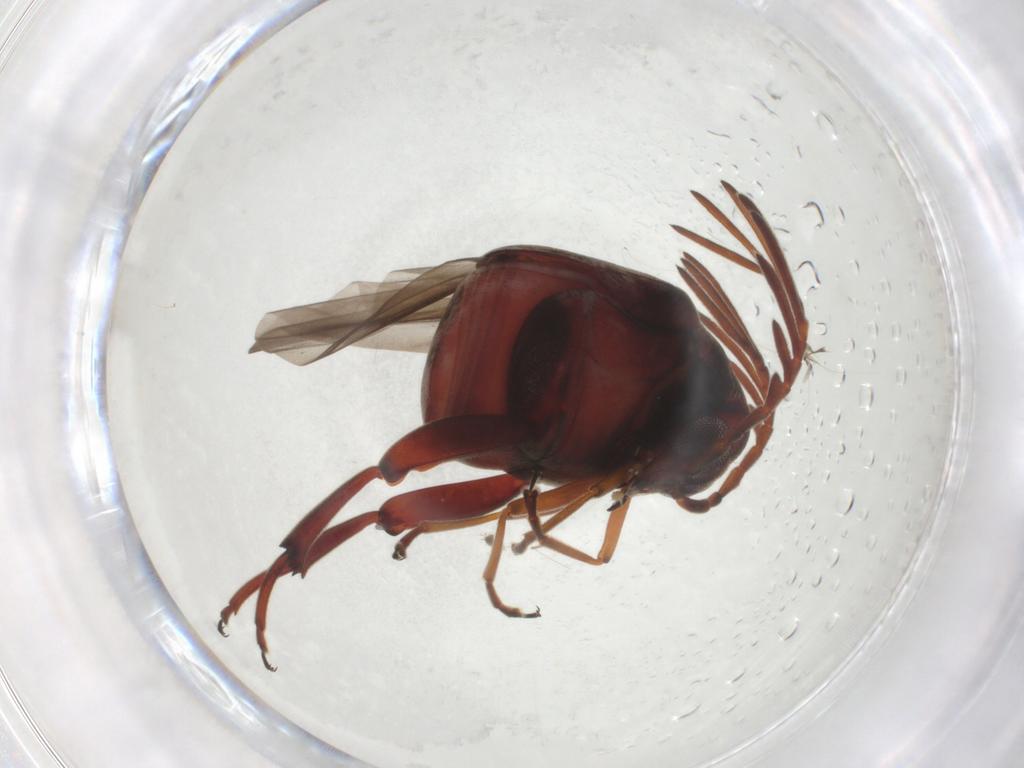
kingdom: Animalia
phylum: Arthropoda
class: Insecta
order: Coleoptera
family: Chrysomelidae
